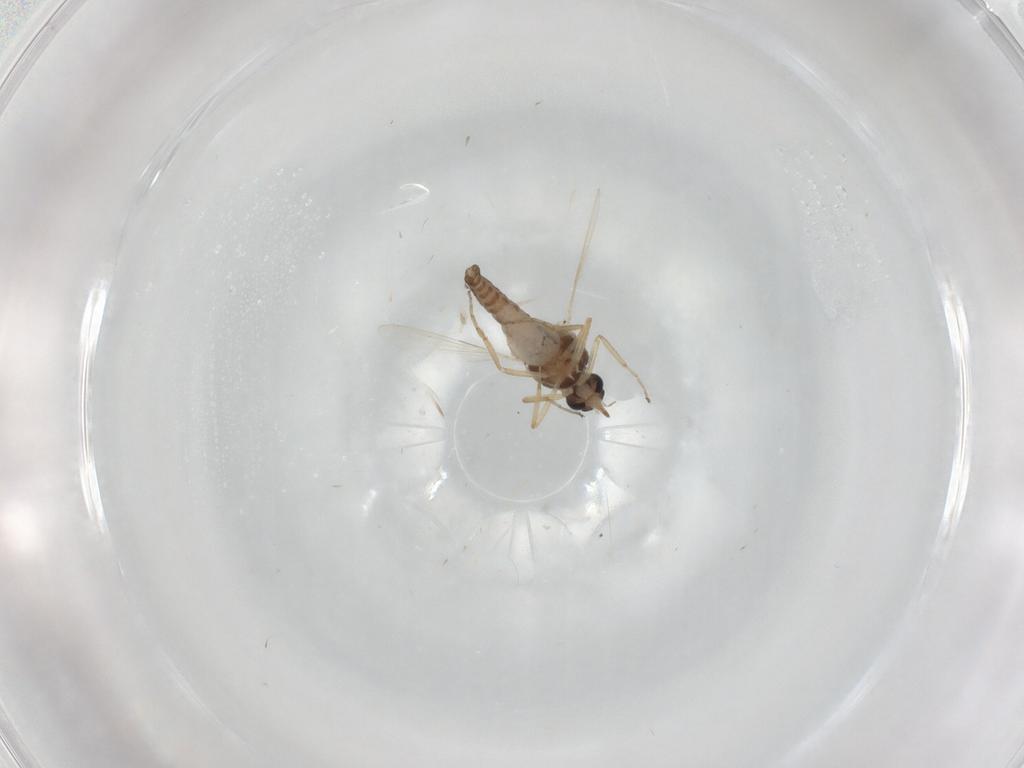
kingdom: Animalia
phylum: Arthropoda
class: Insecta
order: Diptera
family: Ceratopogonidae
